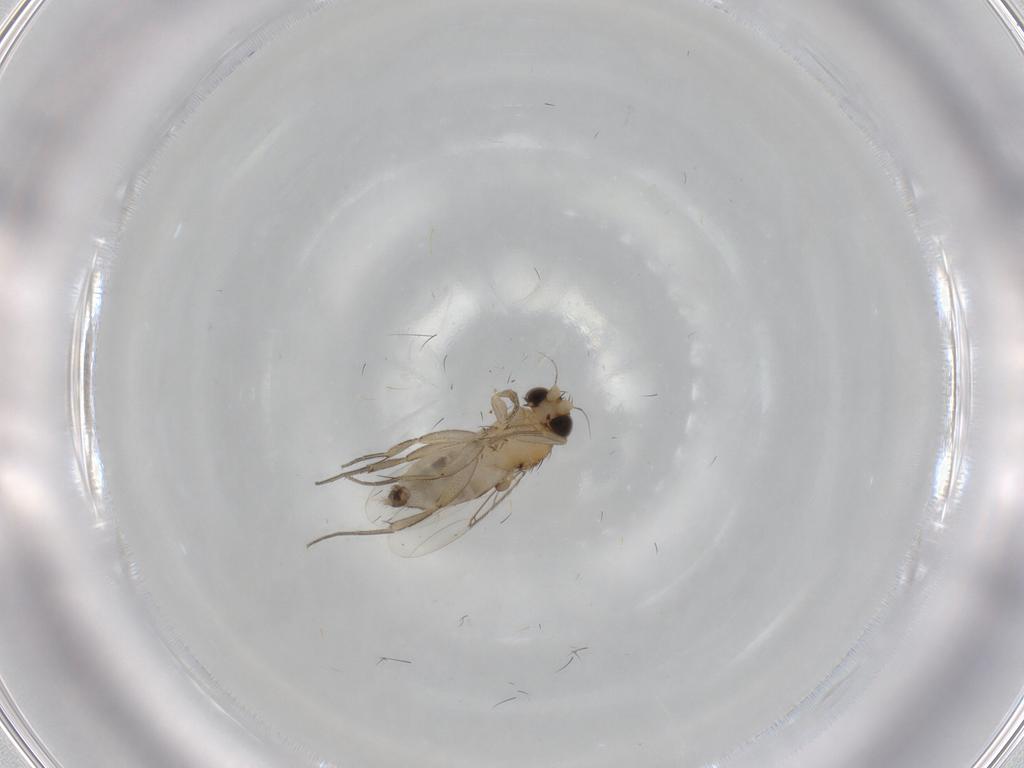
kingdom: Animalia
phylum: Arthropoda
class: Insecta
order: Diptera
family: Phoridae
